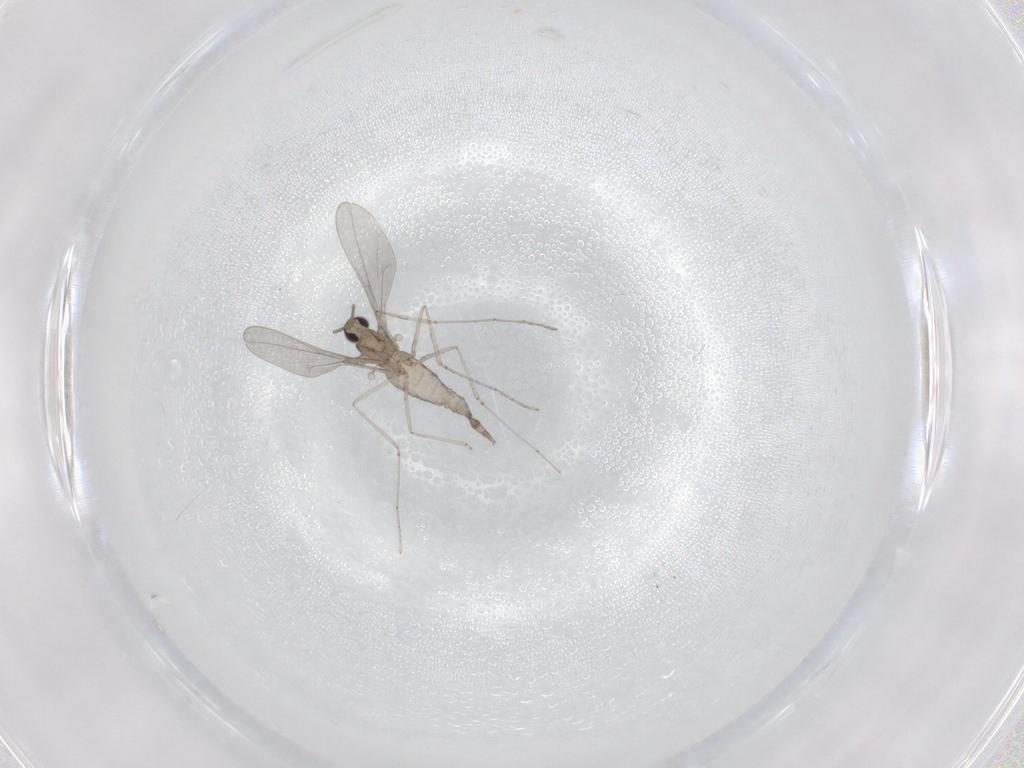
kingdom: Animalia
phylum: Arthropoda
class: Insecta
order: Diptera
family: Cecidomyiidae
